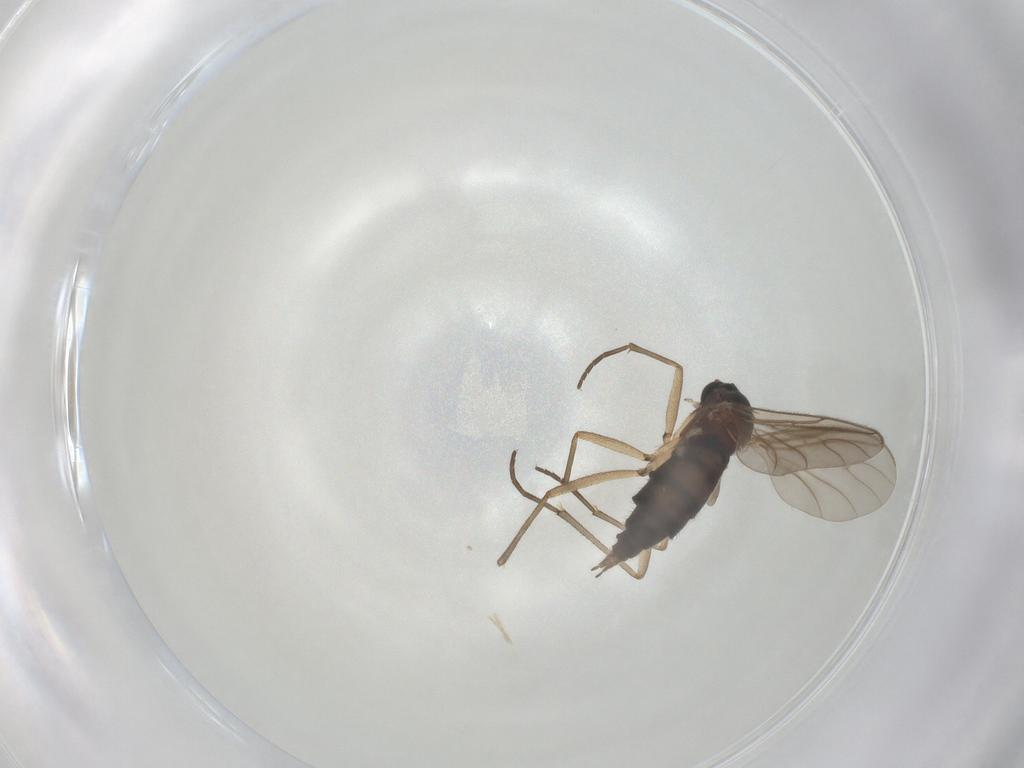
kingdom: Animalia
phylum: Arthropoda
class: Insecta
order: Diptera
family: Sciaridae
